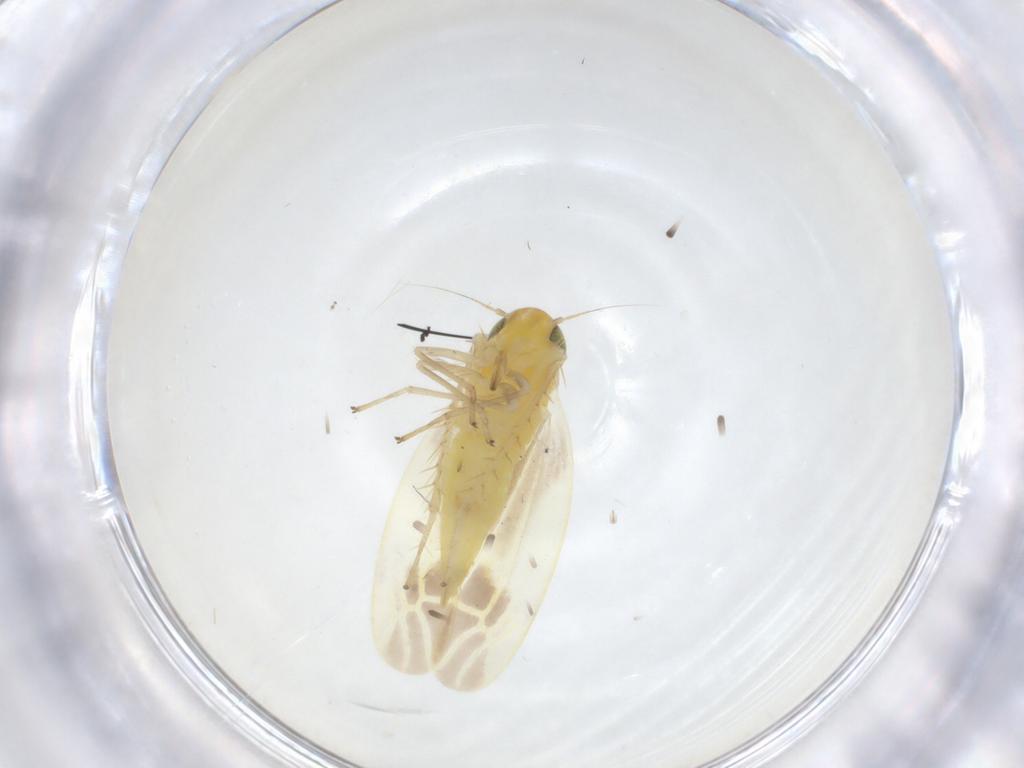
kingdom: Animalia
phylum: Arthropoda
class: Insecta
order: Hemiptera
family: Cicadellidae
